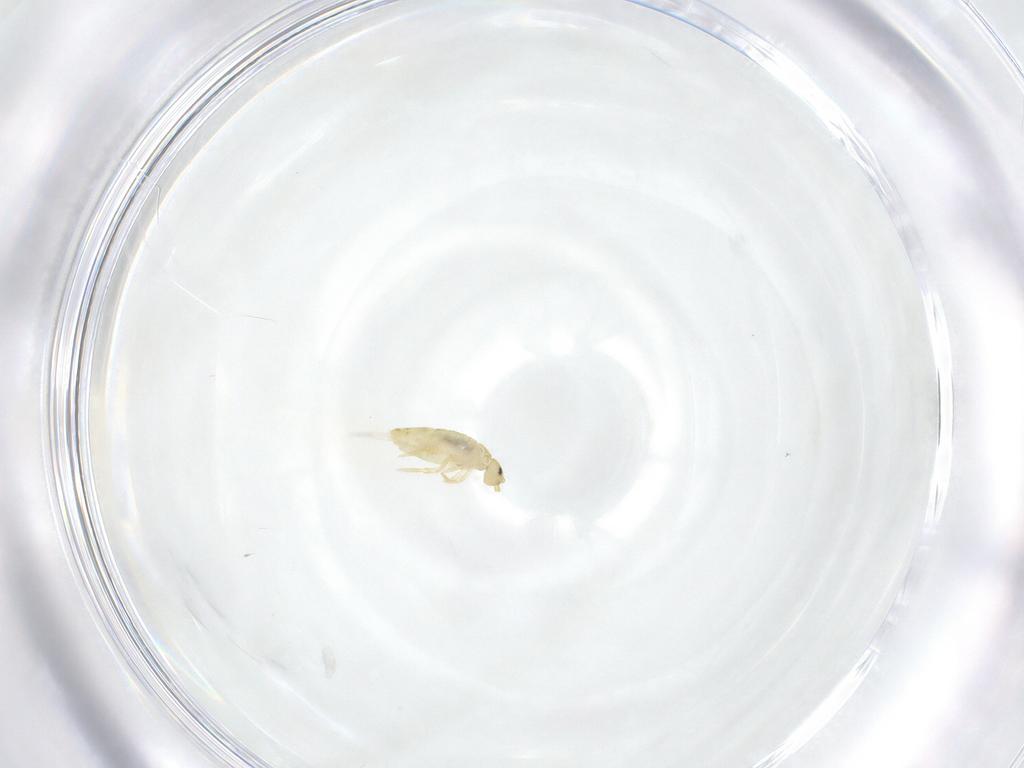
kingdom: Animalia
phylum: Arthropoda
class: Collembola
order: Entomobryomorpha
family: Entomobryidae
